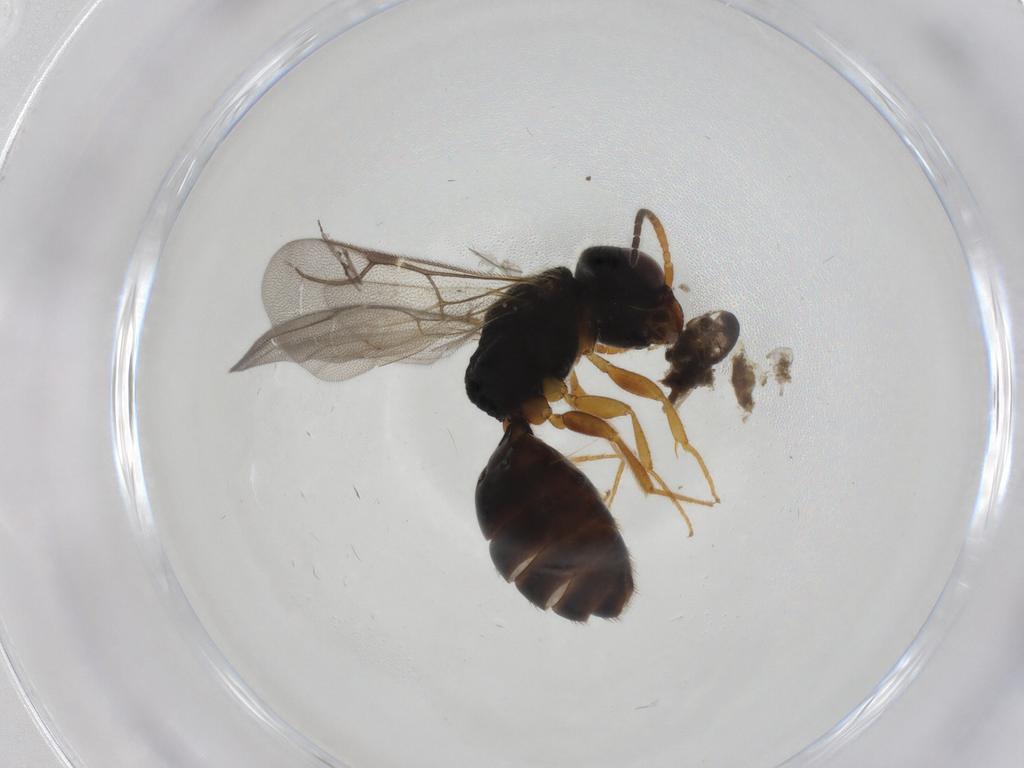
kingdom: Animalia
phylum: Arthropoda
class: Insecta
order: Hymenoptera
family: Bethylidae
